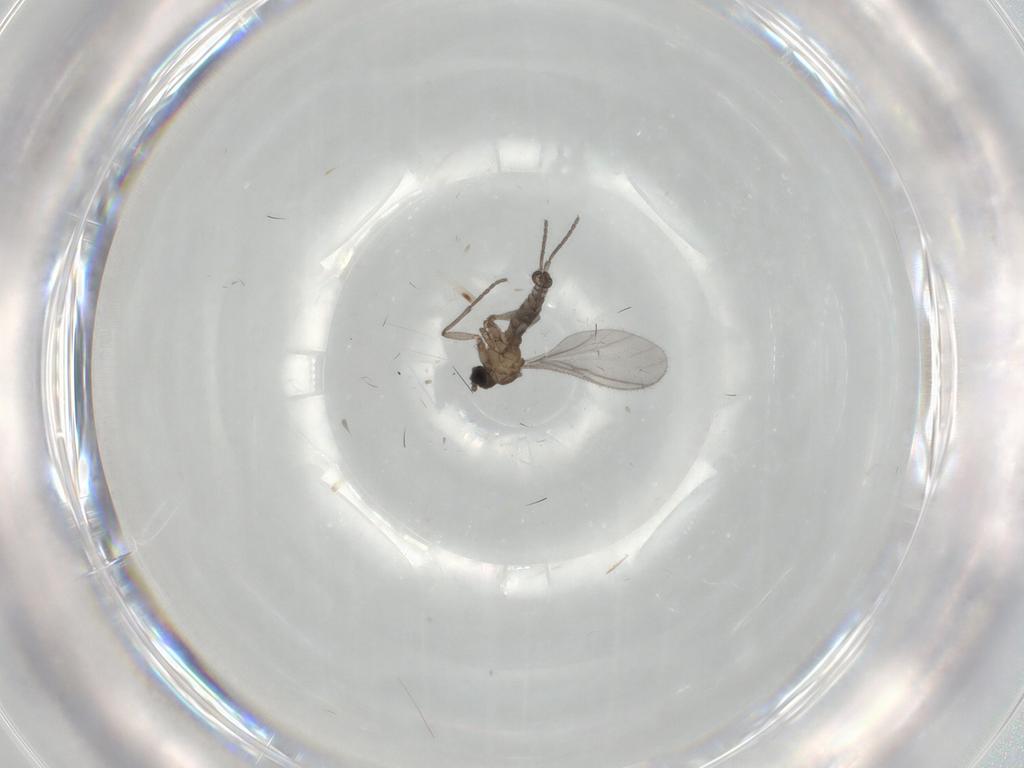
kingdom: Animalia
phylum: Arthropoda
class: Insecta
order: Diptera
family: Sciaridae
